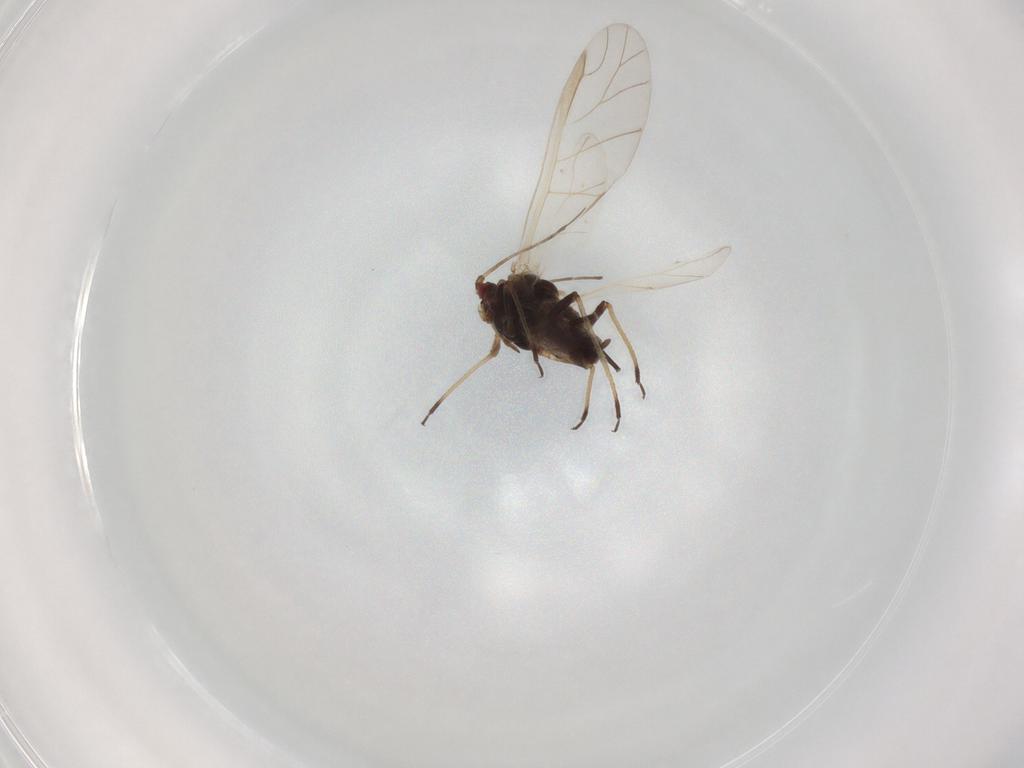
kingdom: Animalia
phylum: Arthropoda
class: Insecta
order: Hemiptera
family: Aphididae
